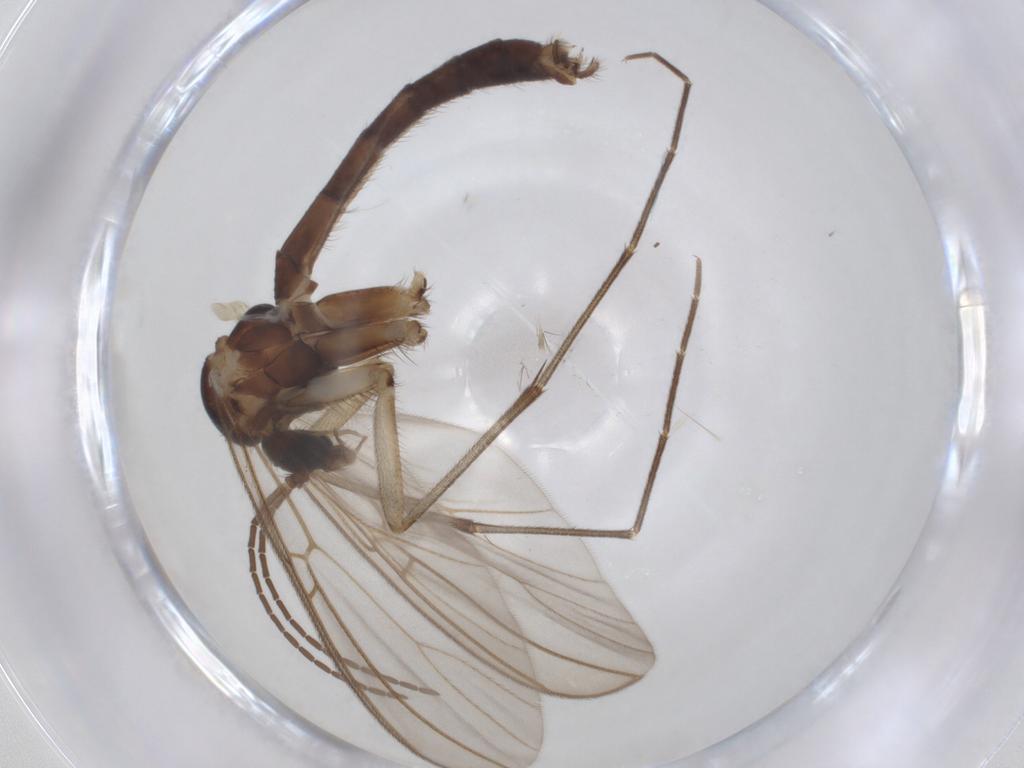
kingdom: Animalia
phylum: Arthropoda
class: Insecta
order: Diptera
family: Mycetophilidae
